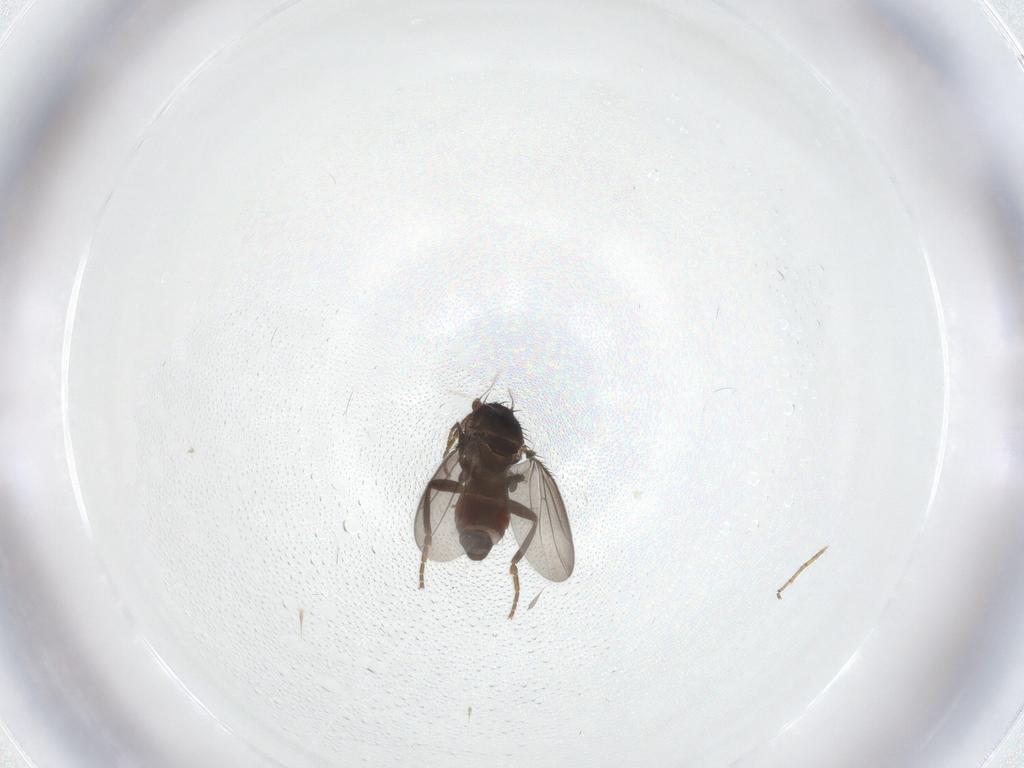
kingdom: Animalia
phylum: Arthropoda
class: Insecta
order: Diptera
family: Sphaeroceridae
